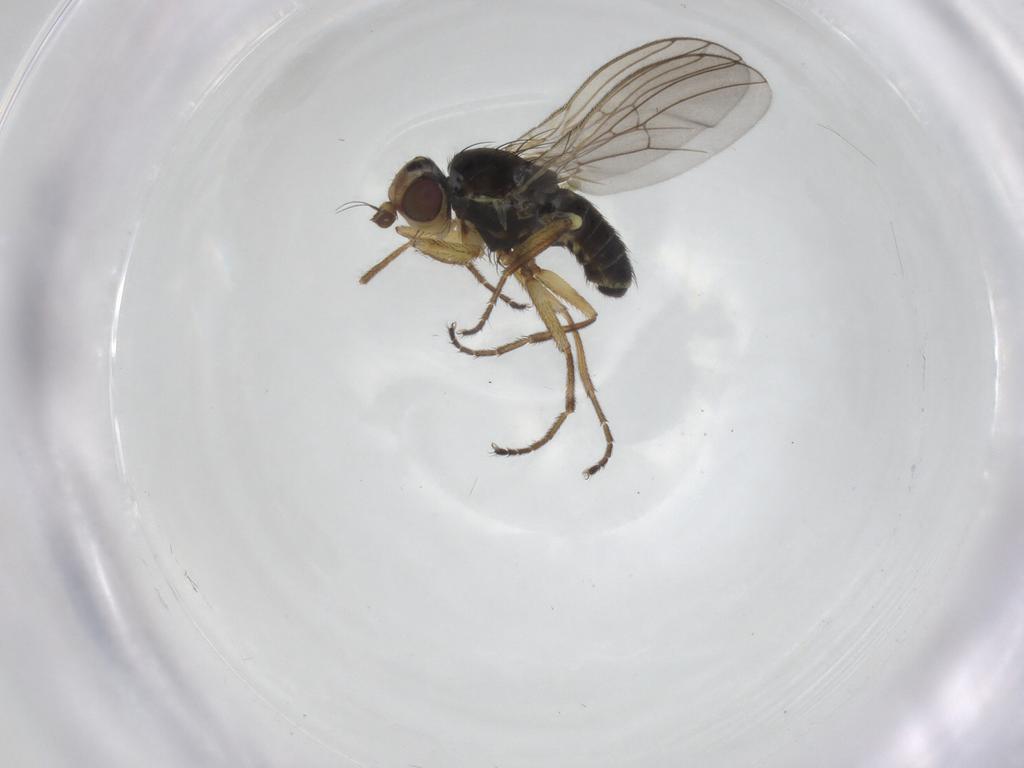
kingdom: Animalia
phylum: Arthropoda
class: Insecta
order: Diptera
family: Agromyzidae
